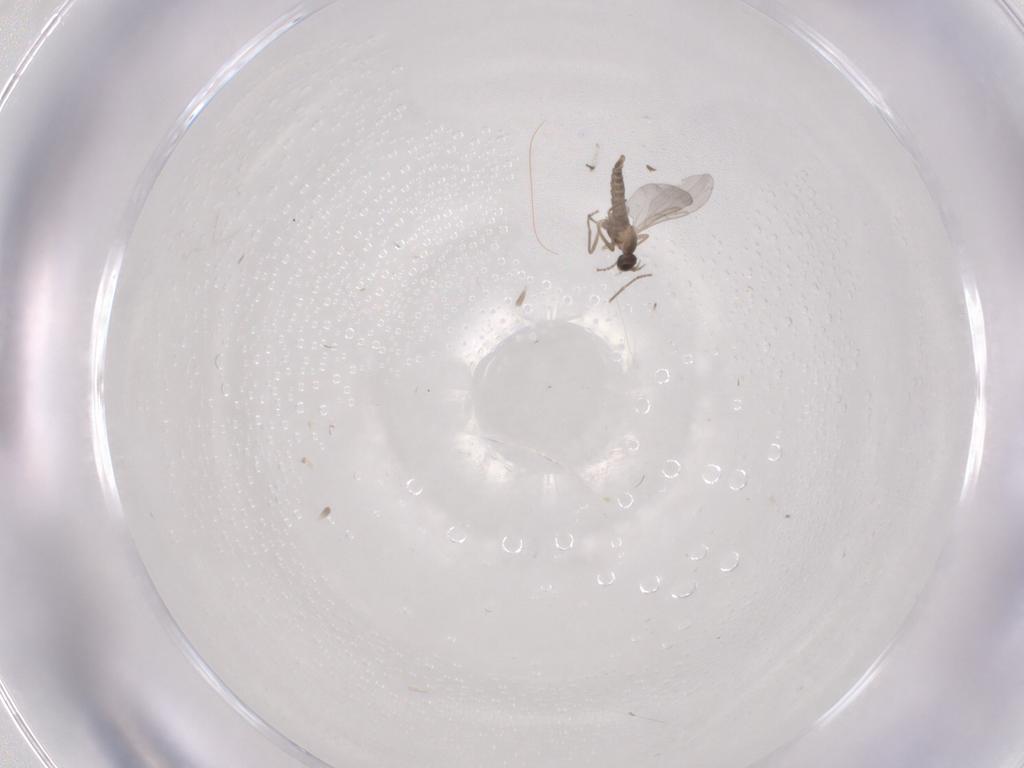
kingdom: Animalia
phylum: Arthropoda
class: Insecta
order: Diptera
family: Cecidomyiidae
